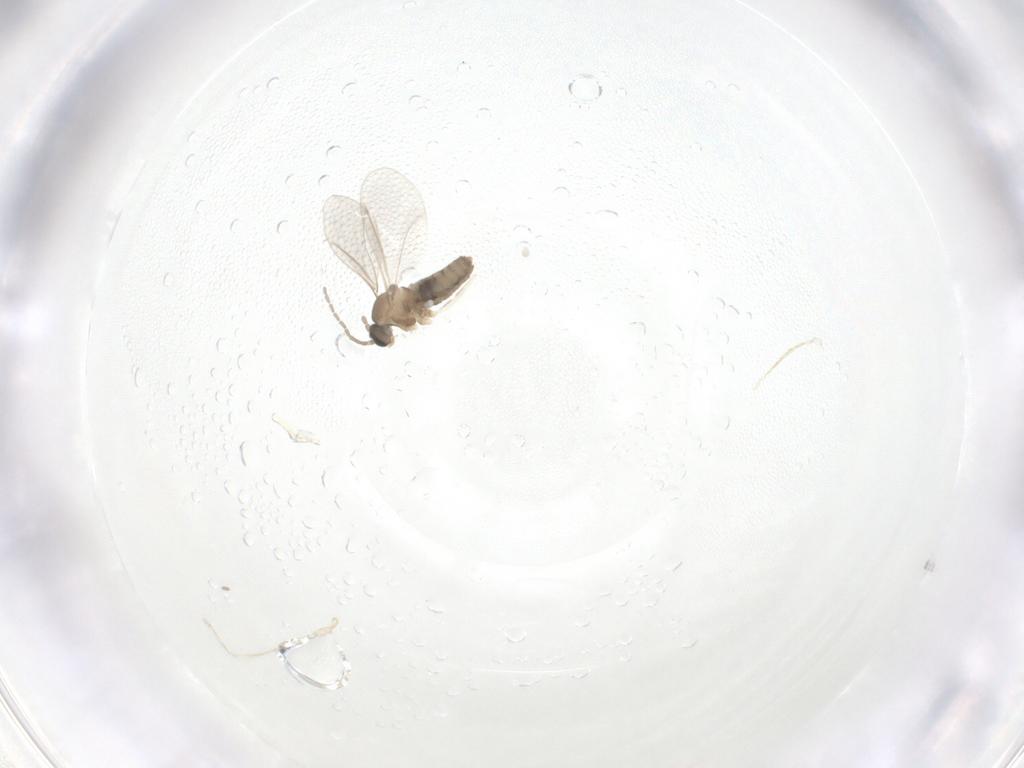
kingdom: Animalia
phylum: Arthropoda
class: Insecta
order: Diptera
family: Cecidomyiidae
